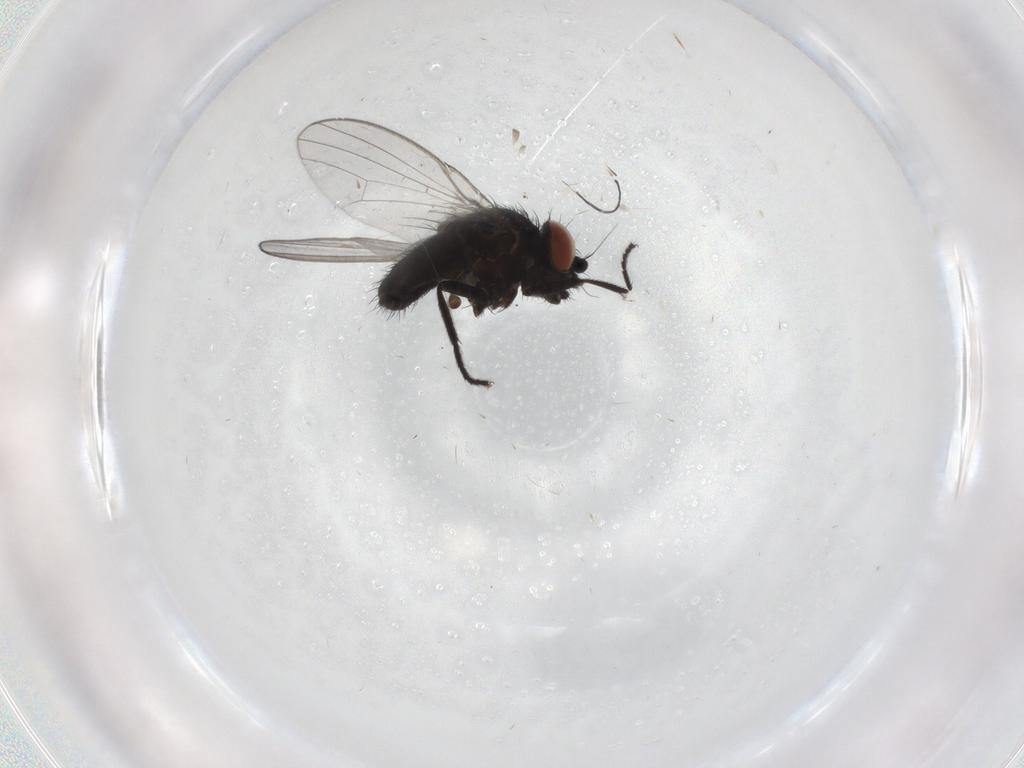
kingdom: Animalia
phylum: Arthropoda
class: Insecta
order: Diptera
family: Milichiidae
